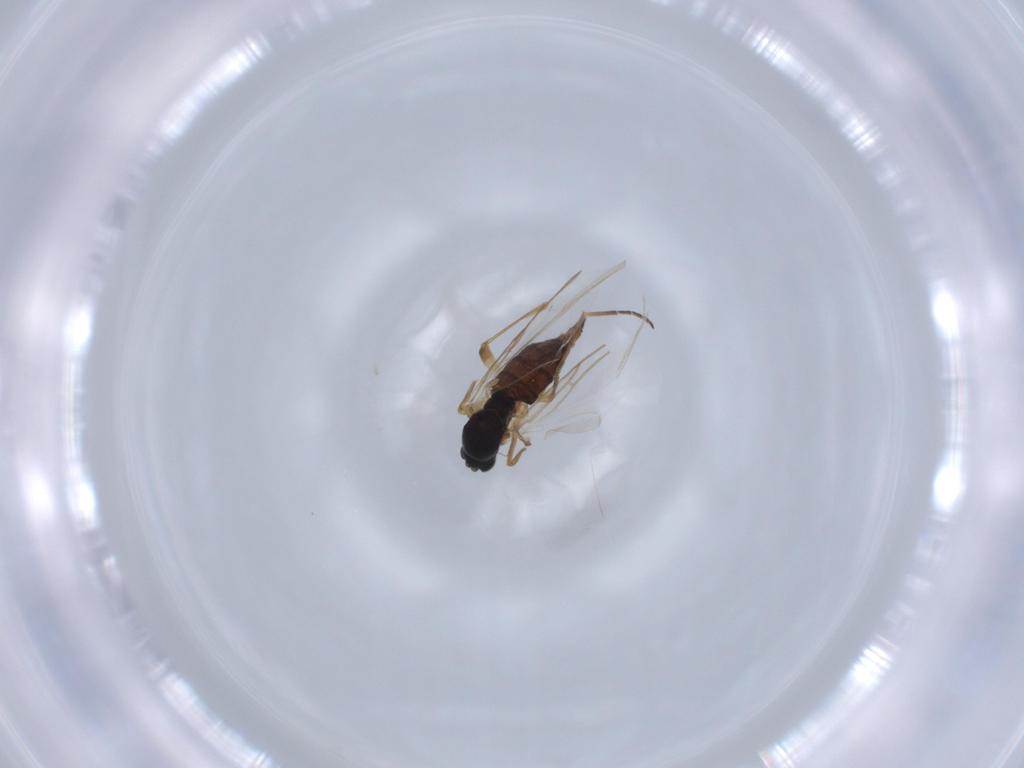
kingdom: Animalia
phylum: Arthropoda
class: Insecta
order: Diptera
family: Sciaridae
